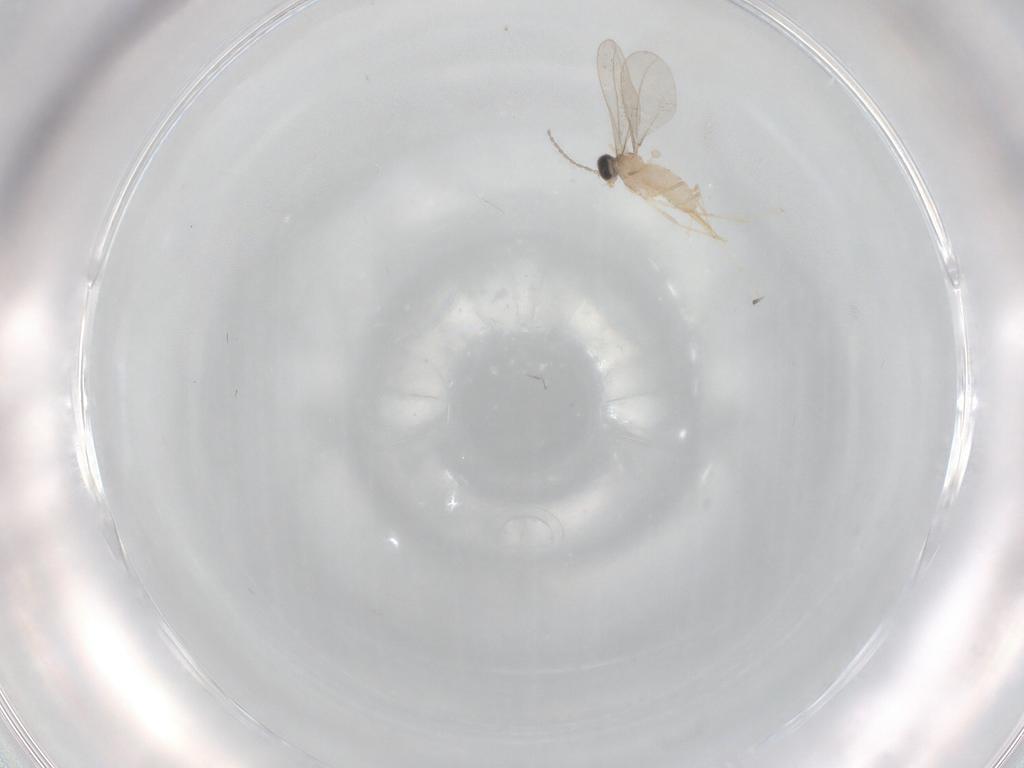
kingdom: Animalia
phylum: Arthropoda
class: Insecta
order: Diptera
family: Cecidomyiidae
